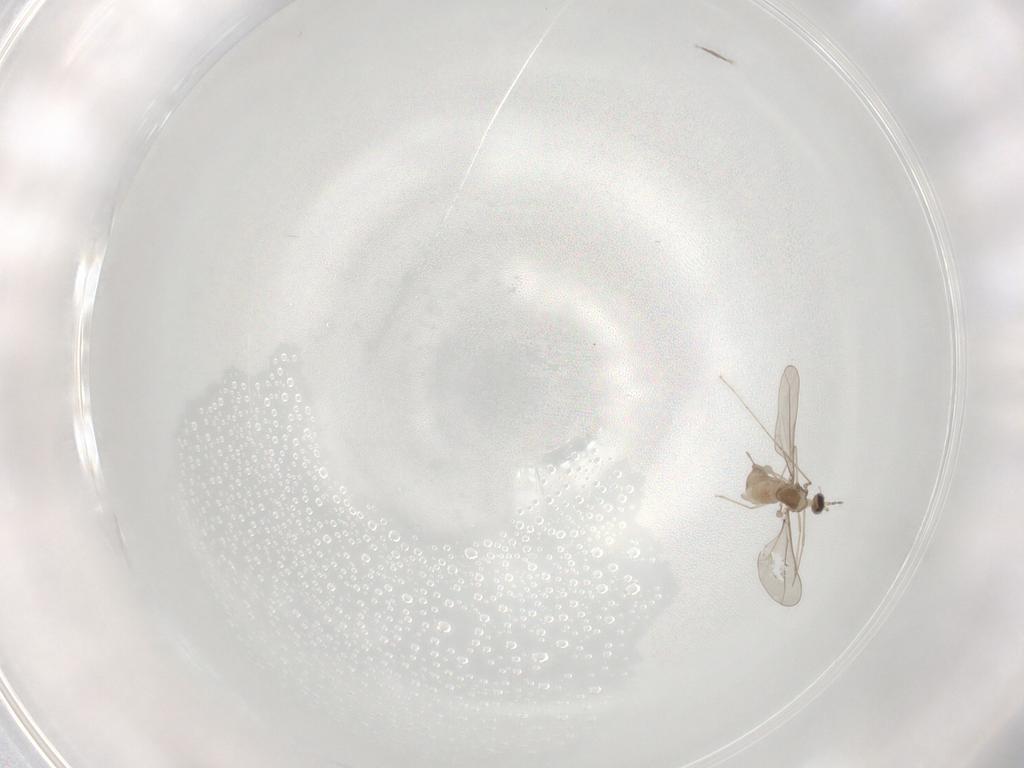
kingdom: Animalia
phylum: Arthropoda
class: Insecta
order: Diptera
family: Cecidomyiidae
